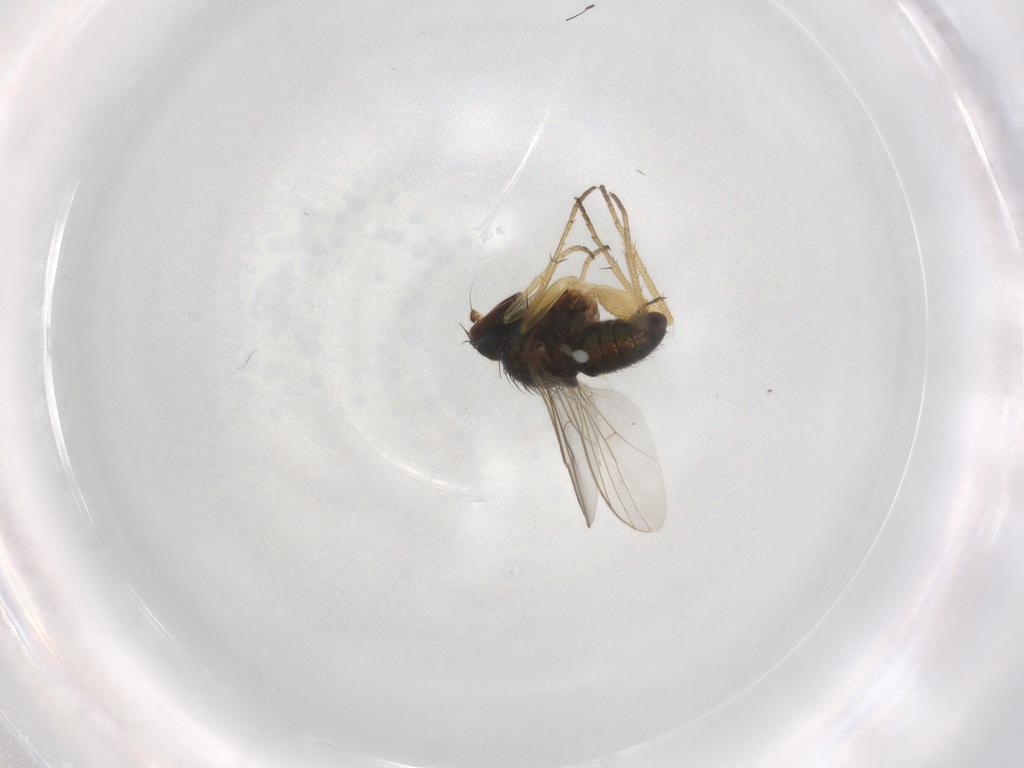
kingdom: Animalia
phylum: Arthropoda
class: Insecta
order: Diptera
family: Dolichopodidae
